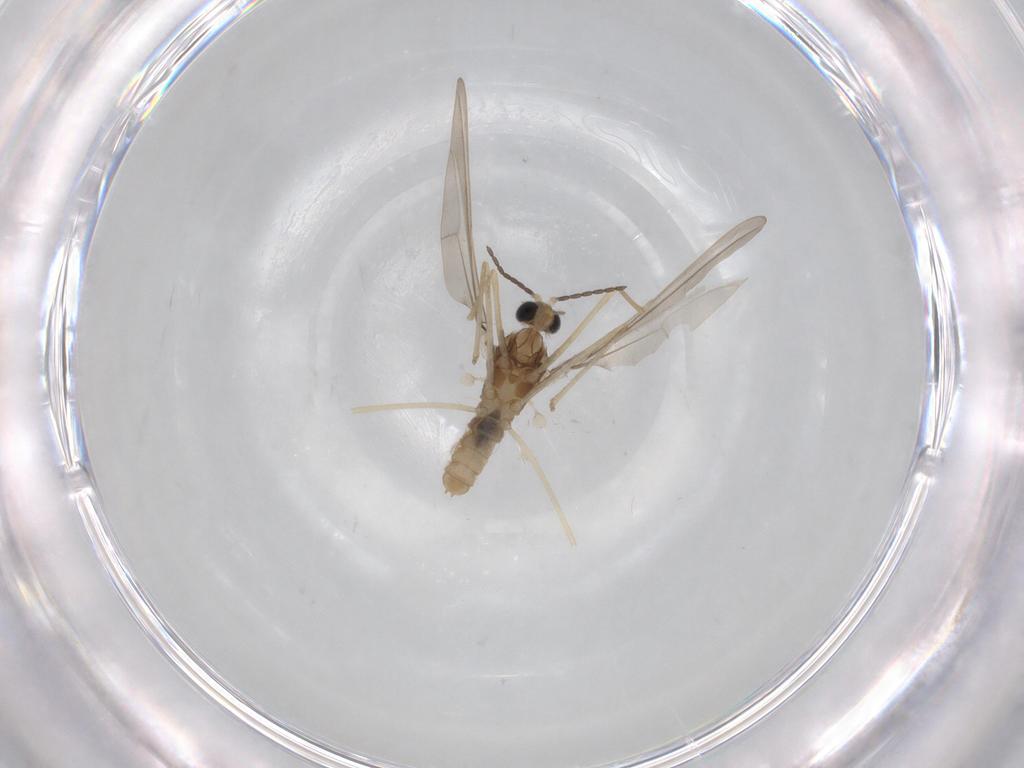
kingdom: Animalia
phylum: Arthropoda
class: Insecta
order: Diptera
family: Cecidomyiidae
